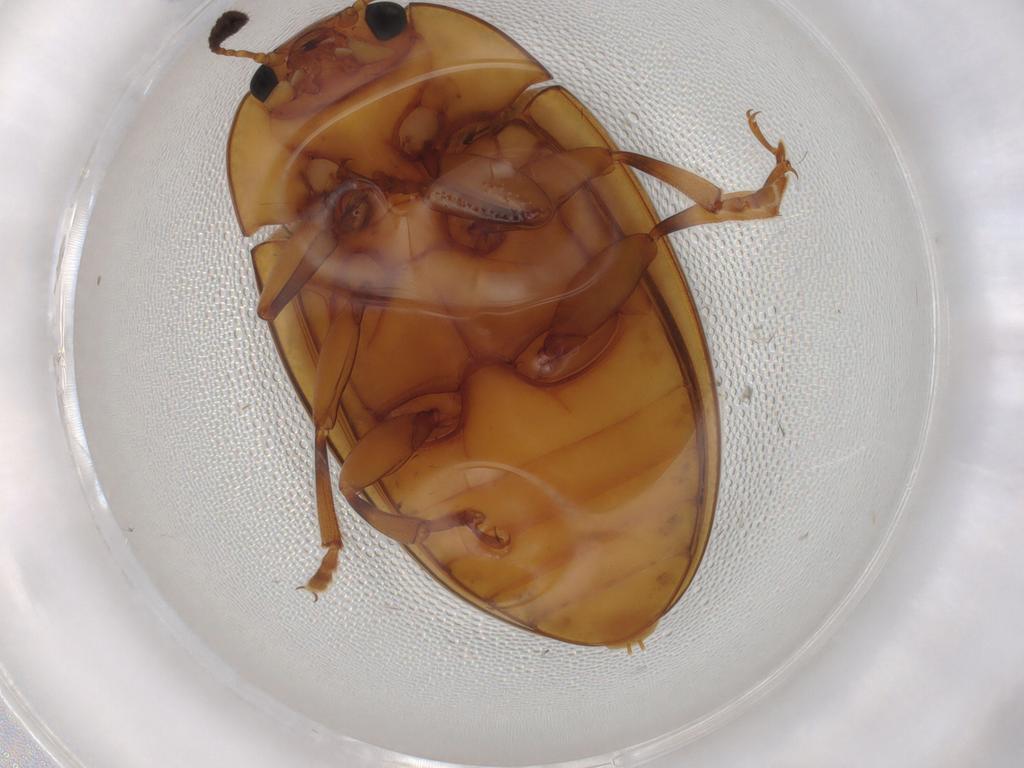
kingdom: Animalia
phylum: Arthropoda
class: Insecta
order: Coleoptera
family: Erotylidae
